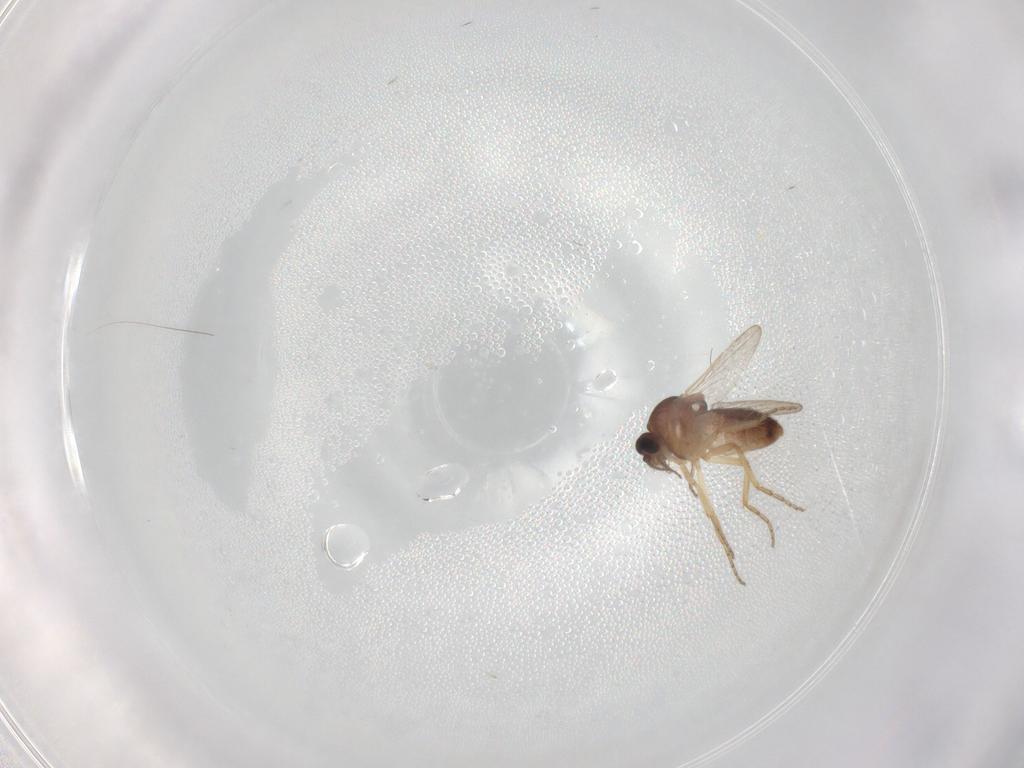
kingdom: Animalia
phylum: Arthropoda
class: Insecta
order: Diptera
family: Ceratopogonidae
